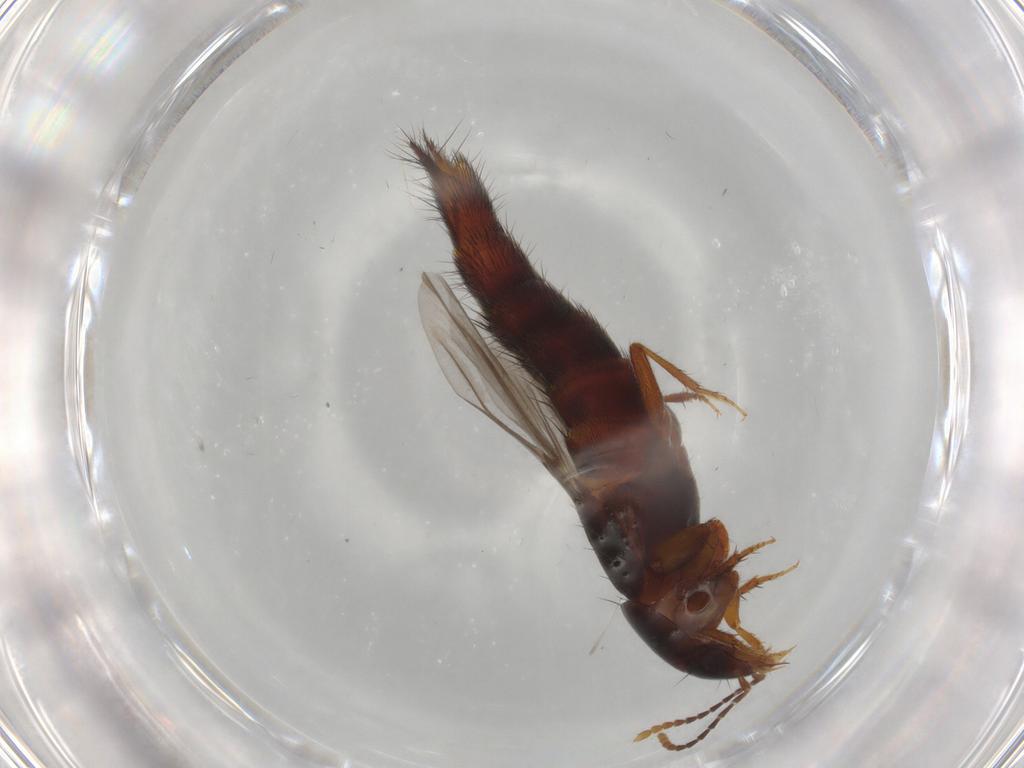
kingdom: Animalia
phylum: Arthropoda
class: Insecta
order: Coleoptera
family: Staphylinidae
